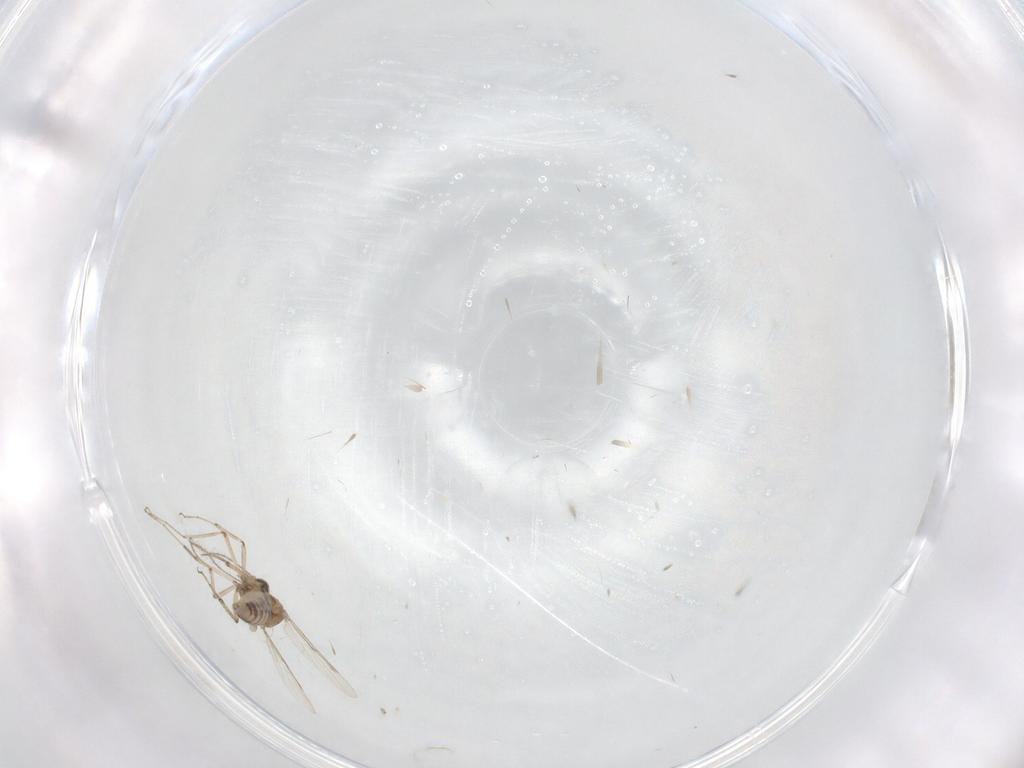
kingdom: Animalia
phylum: Arthropoda
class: Insecta
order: Diptera
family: Ceratopogonidae
